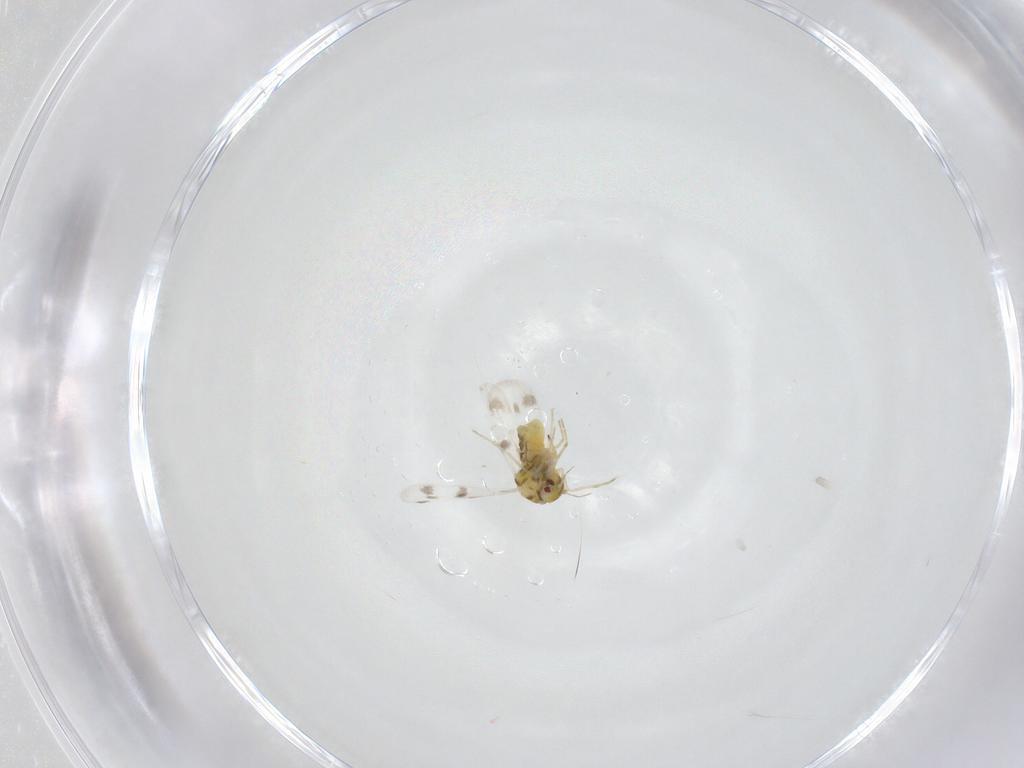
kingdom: Animalia
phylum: Arthropoda
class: Insecta
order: Hemiptera
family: Aleyrodidae
